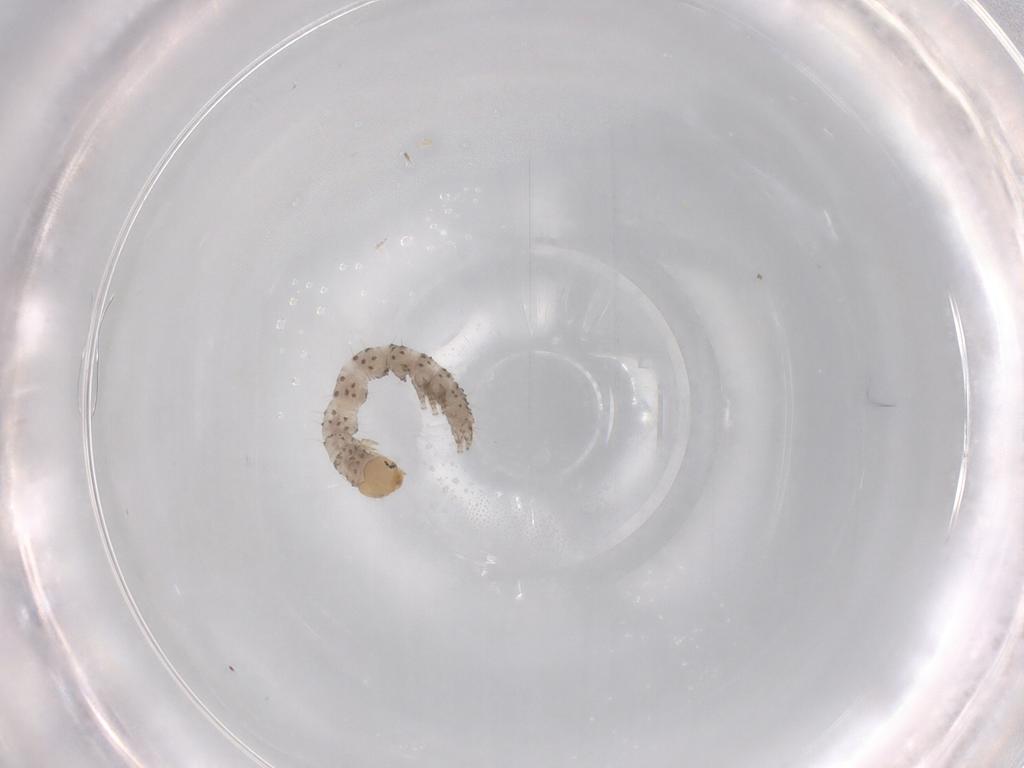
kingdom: Animalia
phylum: Arthropoda
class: Insecta
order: Lepidoptera
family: Erebidae
